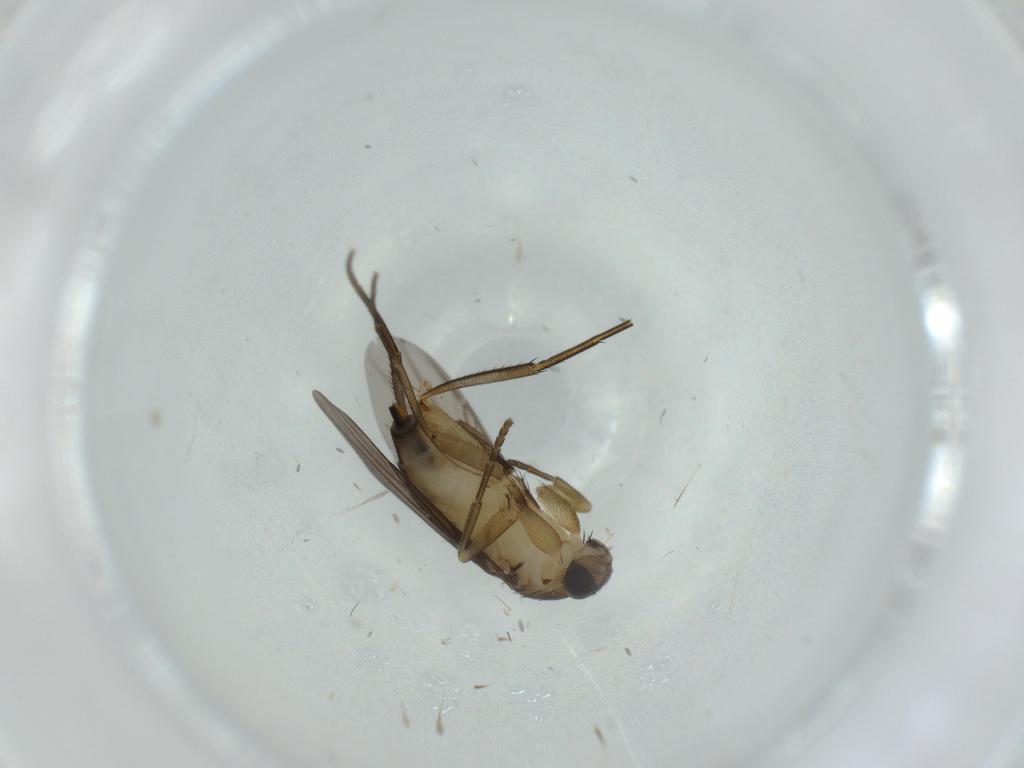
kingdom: Animalia
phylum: Arthropoda
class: Insecta
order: Diptera
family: Phoridae
